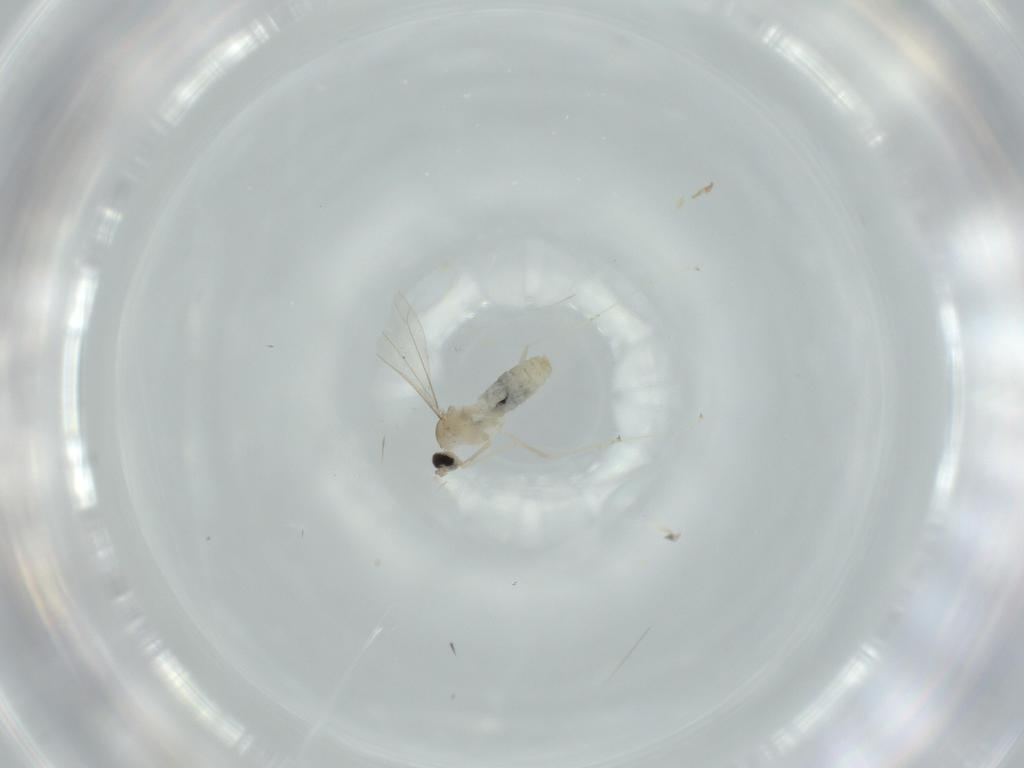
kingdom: Animalia
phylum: Arthropoda
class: Insecta
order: Diptera
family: Cecidomyiidae
